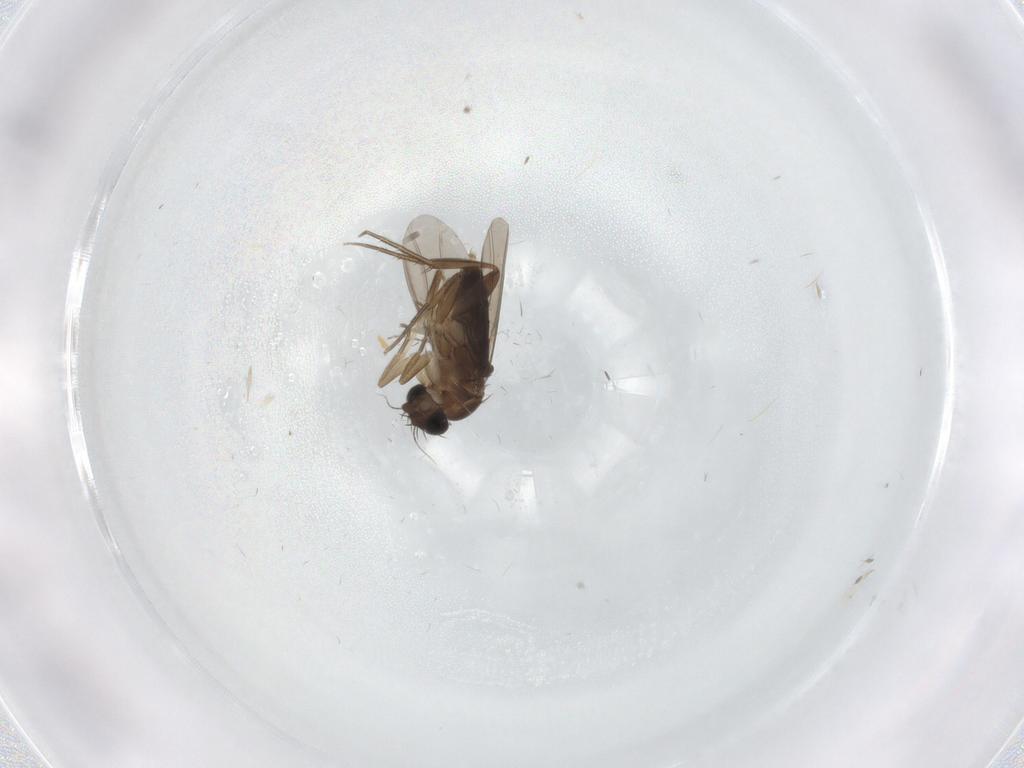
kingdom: Animalia
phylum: Arthropoda
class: Insecta
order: Diptera
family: Phoridae
